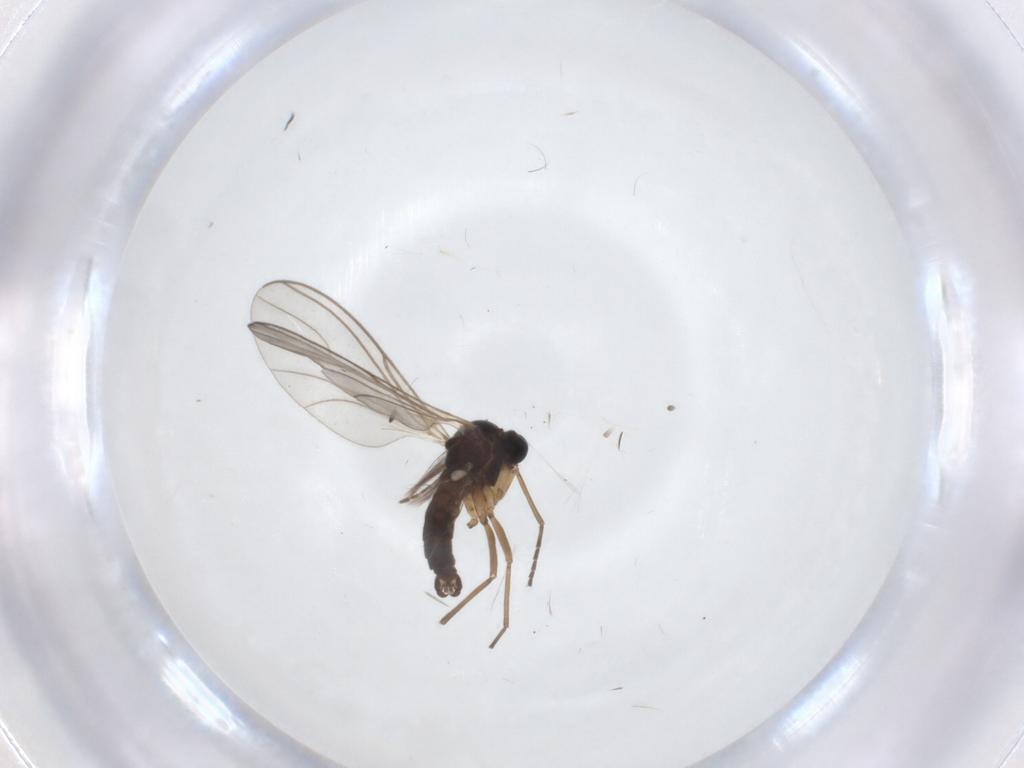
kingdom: Animalia
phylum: Arthropoda
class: Insecta
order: Diptera
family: Sciaridae
